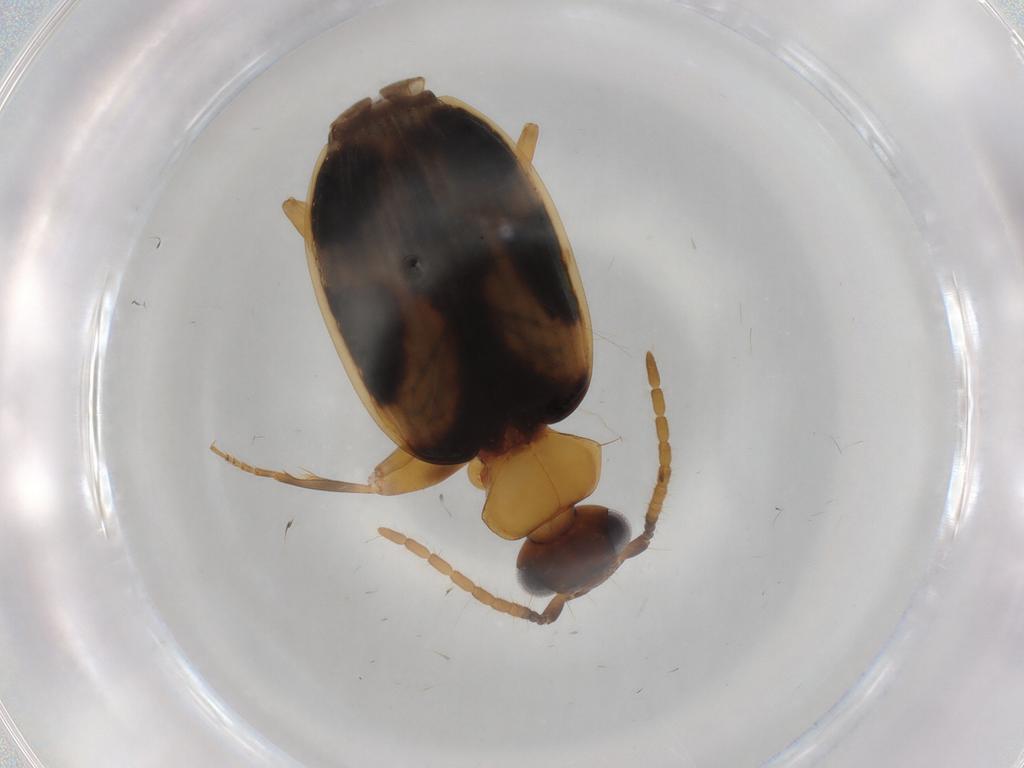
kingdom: Animalia
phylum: Arthropoda
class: Insecta
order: Coleoptera
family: Carabidae
